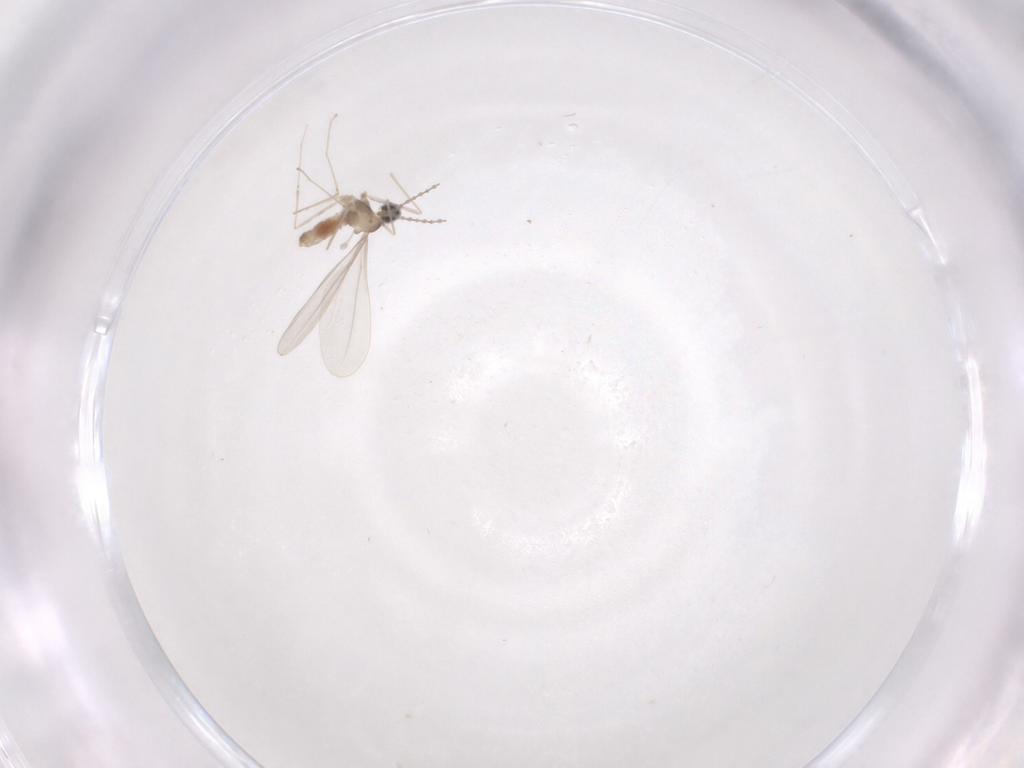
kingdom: Animalia
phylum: Arthropoda
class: Insecta
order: Diptera
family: Cecidomyiidae
